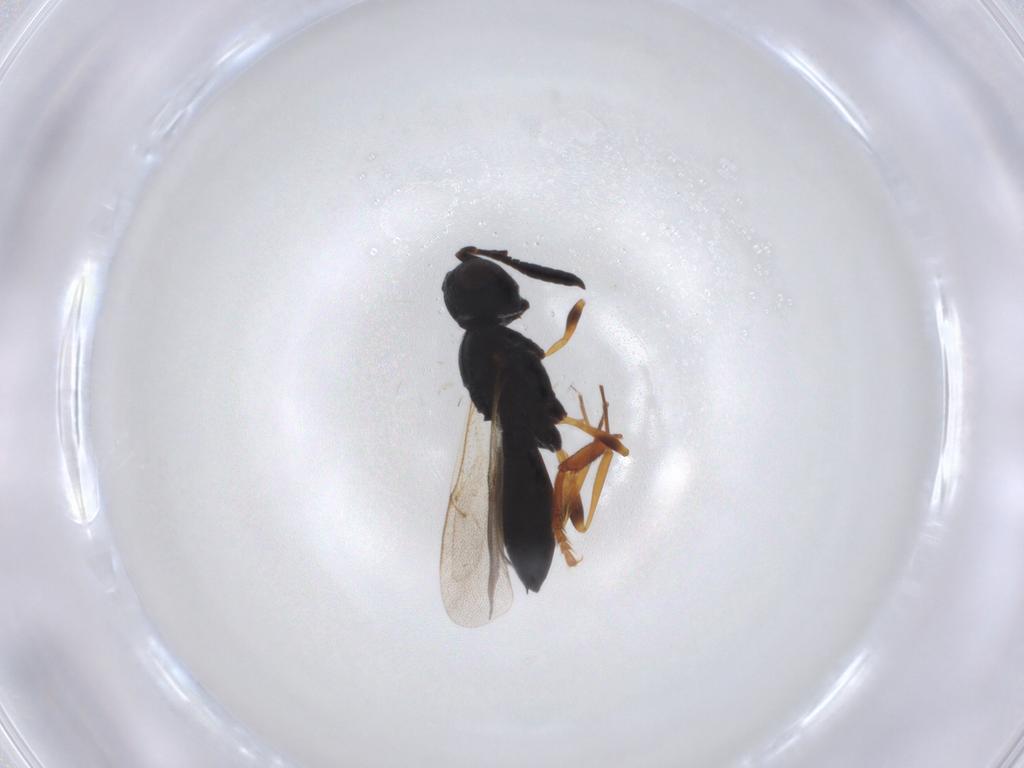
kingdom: Animalia
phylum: Arthropoda
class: Insecta
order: Hymenoptera
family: Scelionidae
